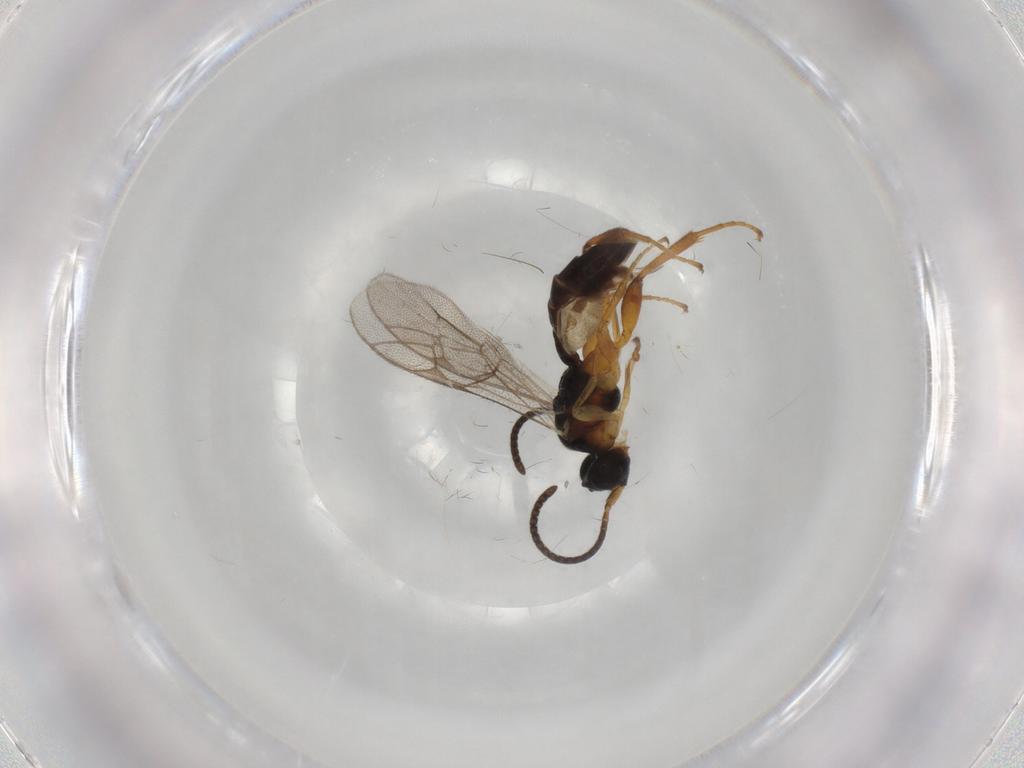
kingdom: Animalia
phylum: Arthropoda
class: Insecta
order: Hymenoptera
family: Ichneumonidae
